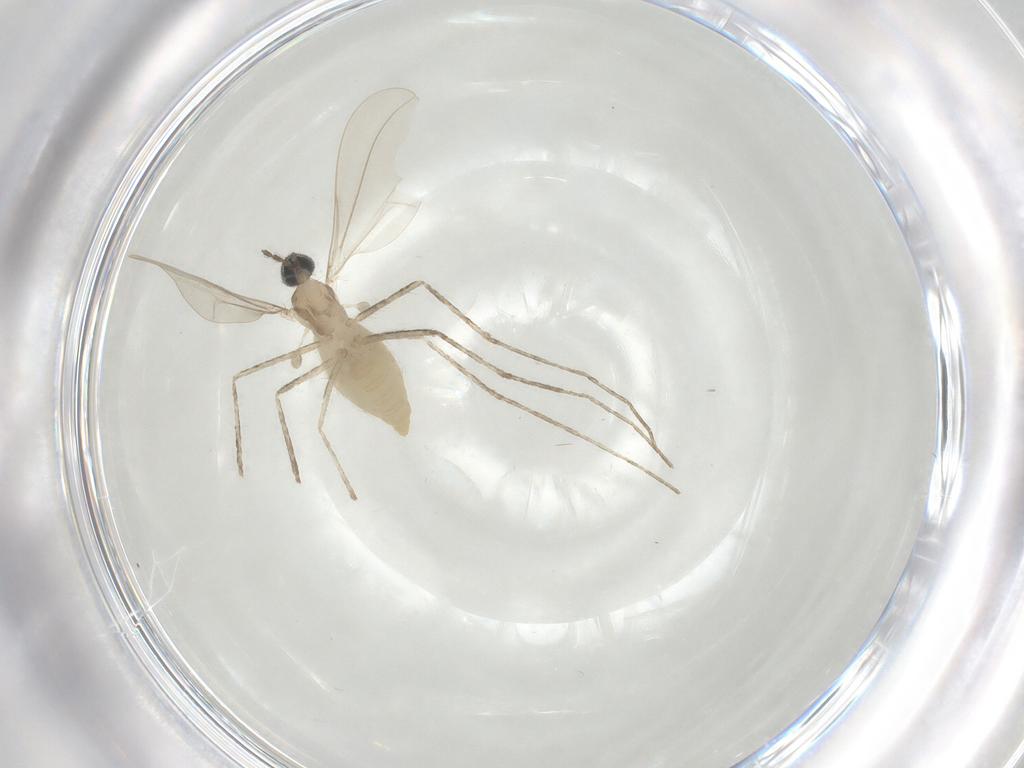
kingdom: Animalia
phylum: Arthropoda
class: Insecta
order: Diptera
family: Cecidomyiidae
